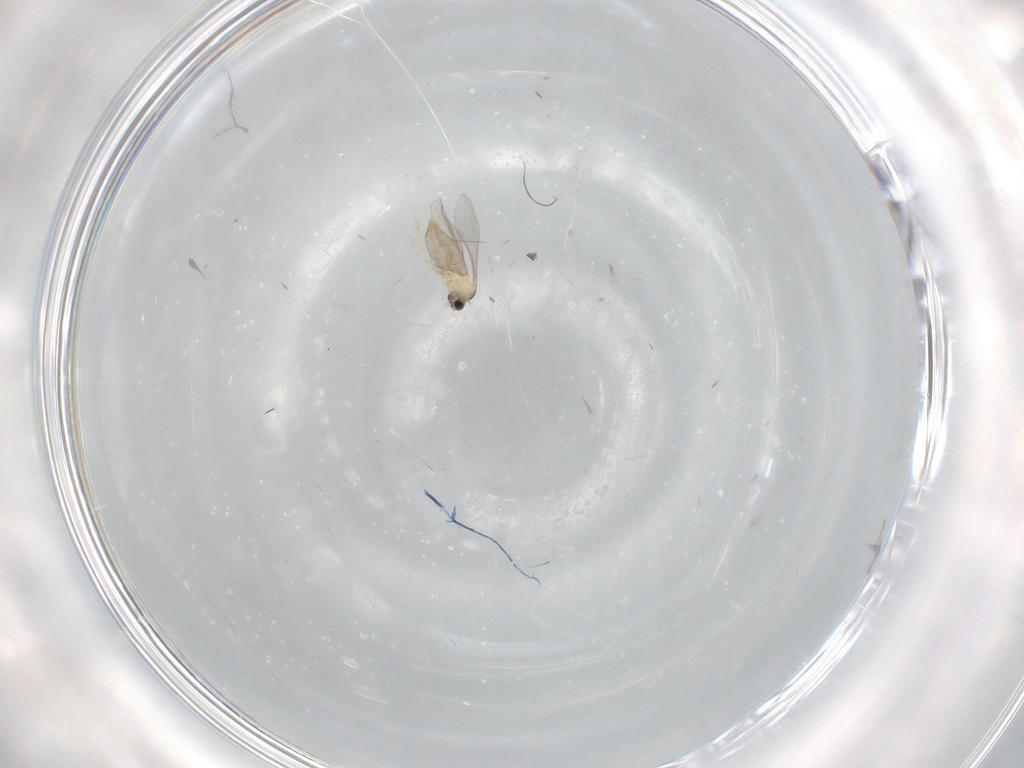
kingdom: Animalia
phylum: Arthropoda
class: Insecta
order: Diptera
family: Cecidomyiidae
